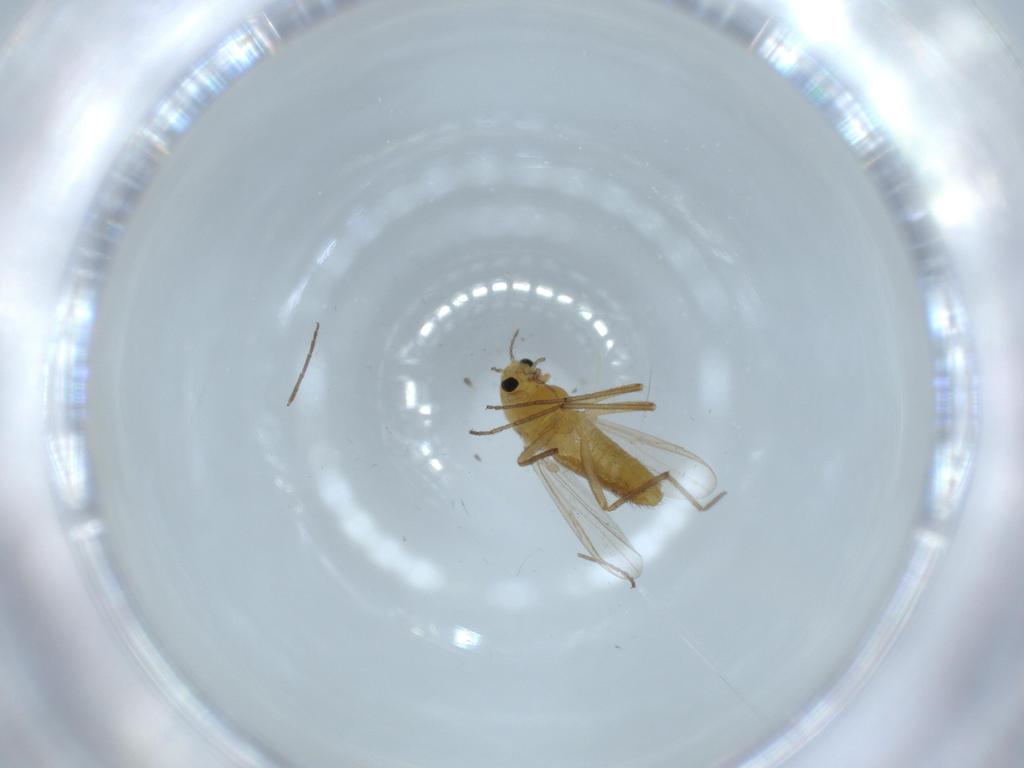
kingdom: Animalia
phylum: Arthropoda
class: Insecta
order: Diptera
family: Chironomidae
